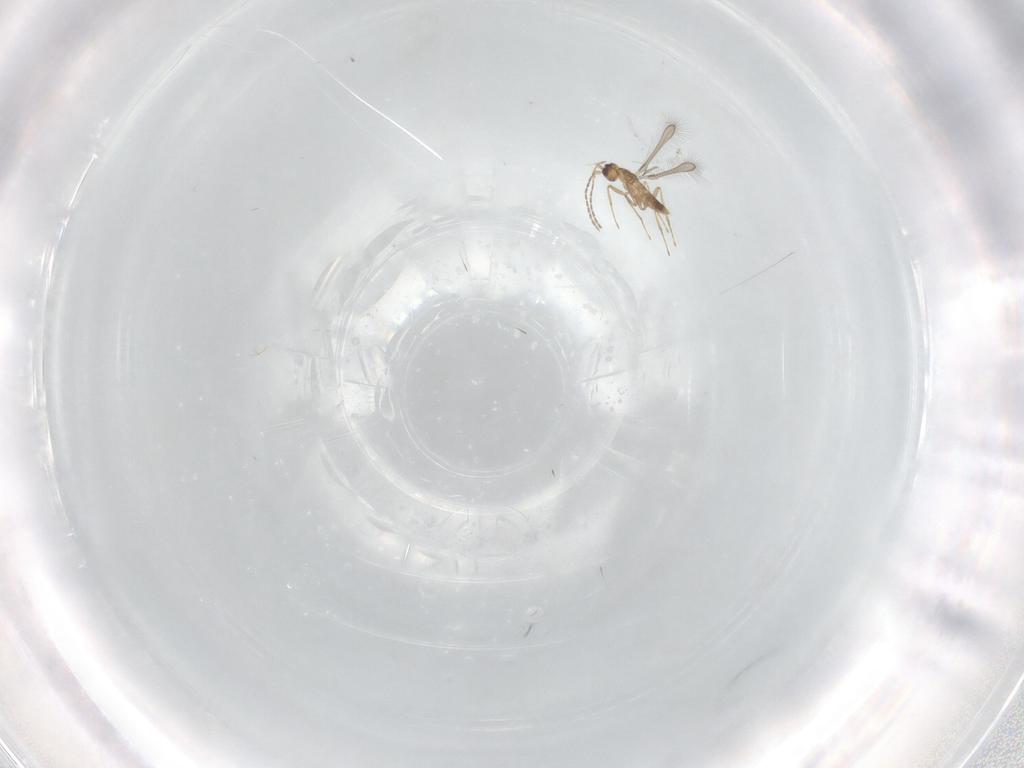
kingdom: Animalia
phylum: Arthropoda
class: Insecta
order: Hymenoptera
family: Mymaridae
